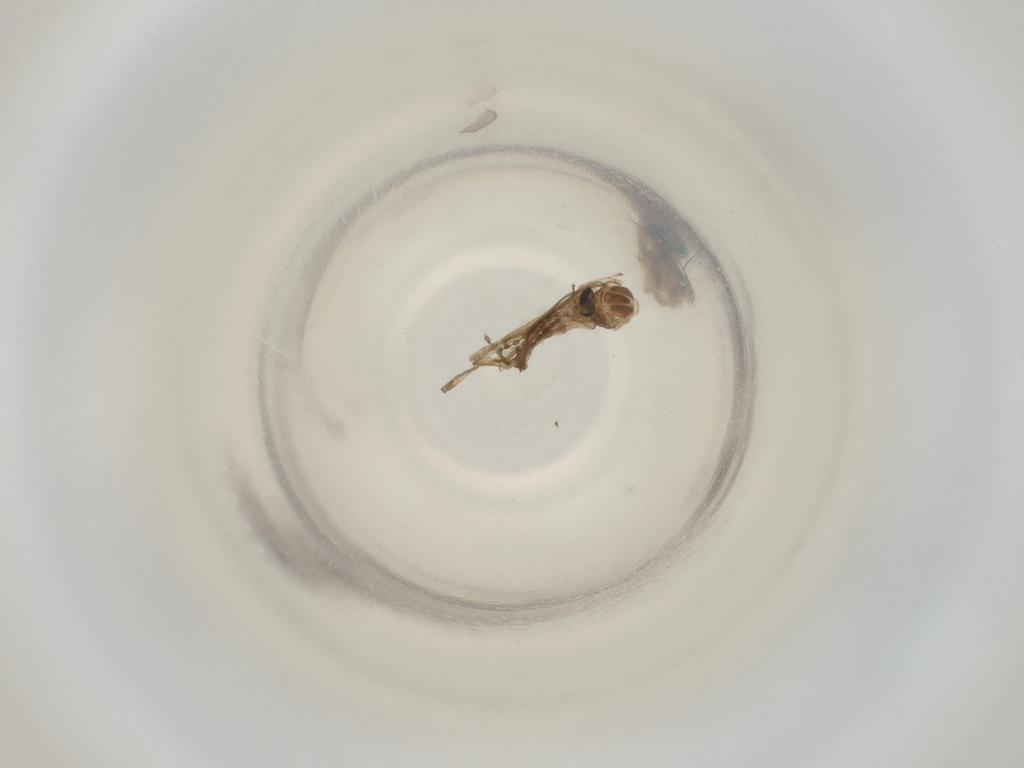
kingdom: Animalia
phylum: Arthropoda
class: Insecta
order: Diptera
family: Cecidomyiidae
